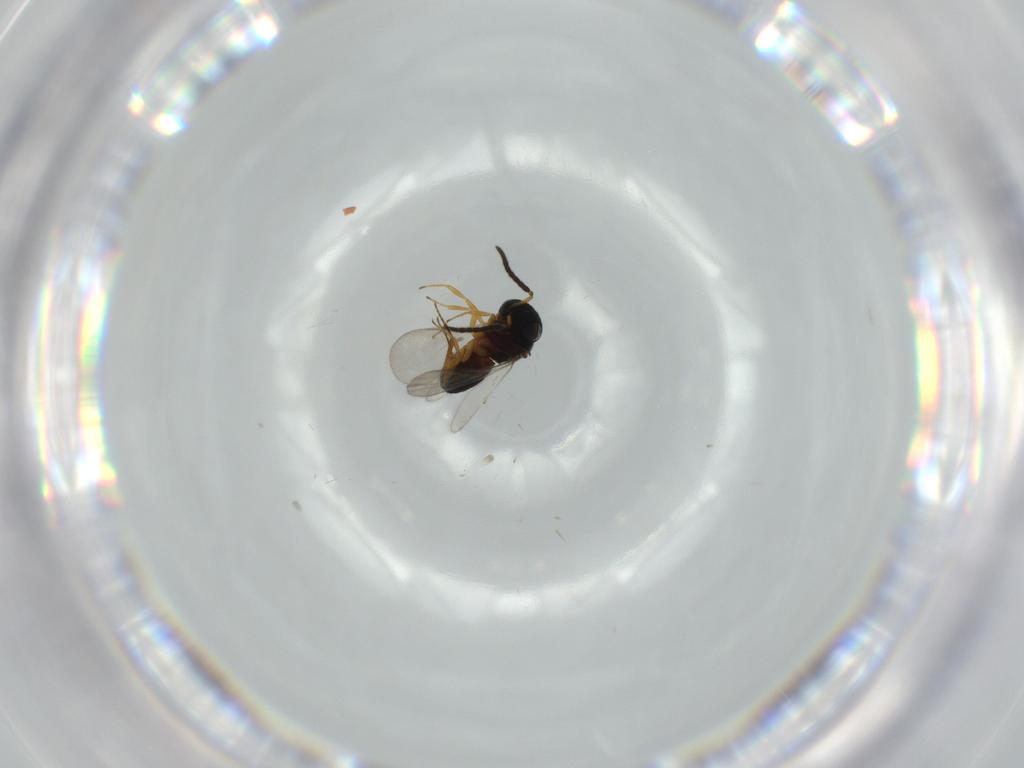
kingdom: Animalia
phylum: Arthropoda
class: Insecta
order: Coleoptera
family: Curculionidae
